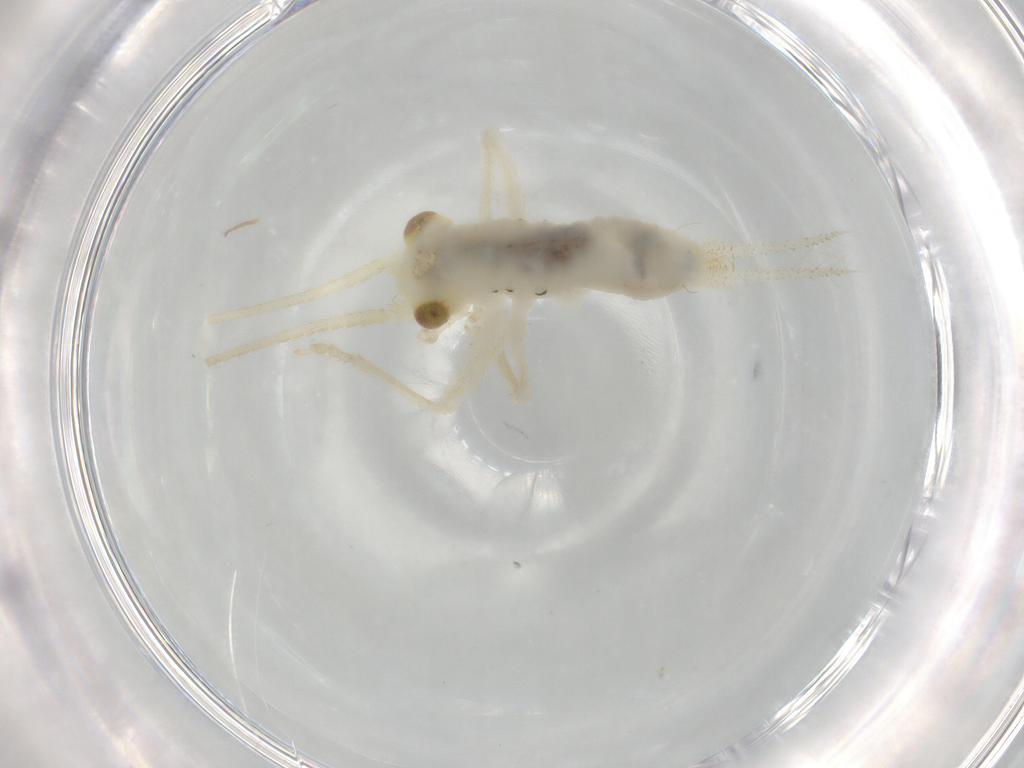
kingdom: Animalia
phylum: Arthropoda
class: Insecta
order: Orthoptera
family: Trigonidiidae
